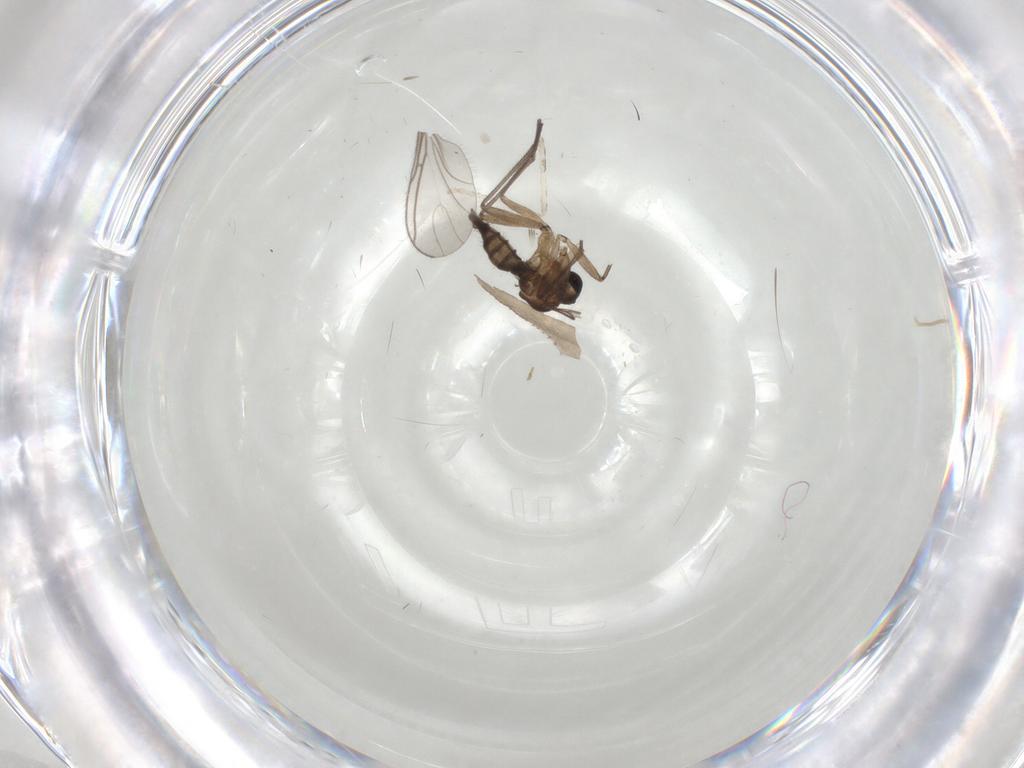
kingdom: Animalia
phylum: Arthropoda
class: Insecta
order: Diptera
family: Cecidomyiidae
